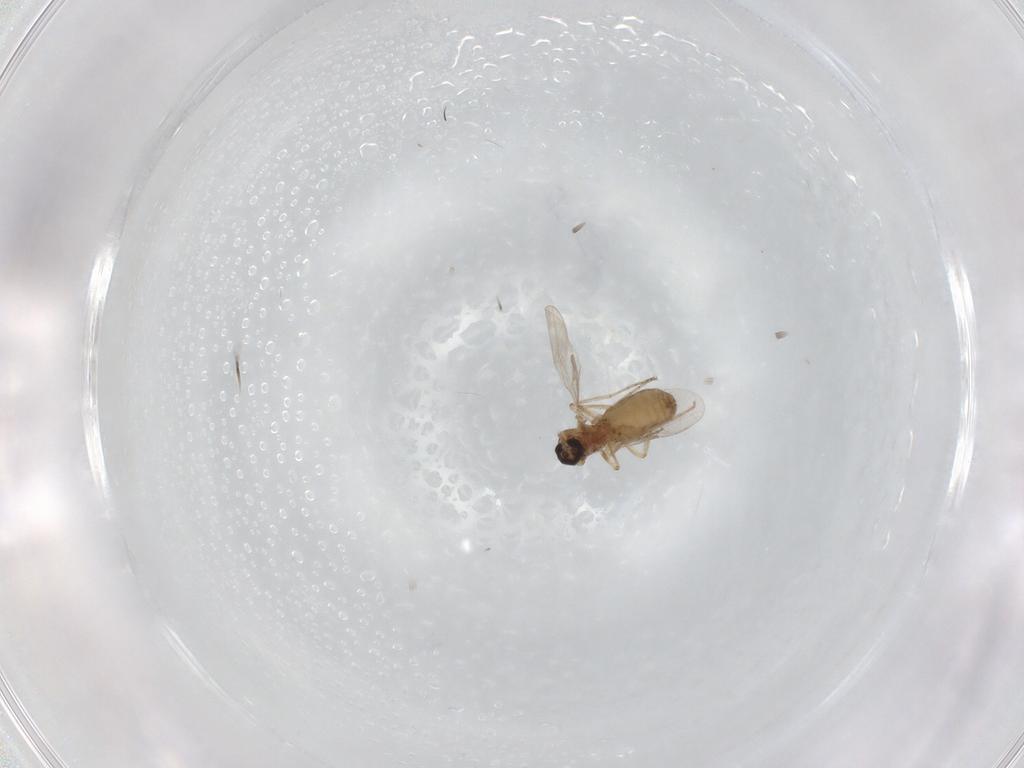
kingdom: Animalia
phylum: Arthropoda
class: Insecta
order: Diptera
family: Ceratopogonidae
